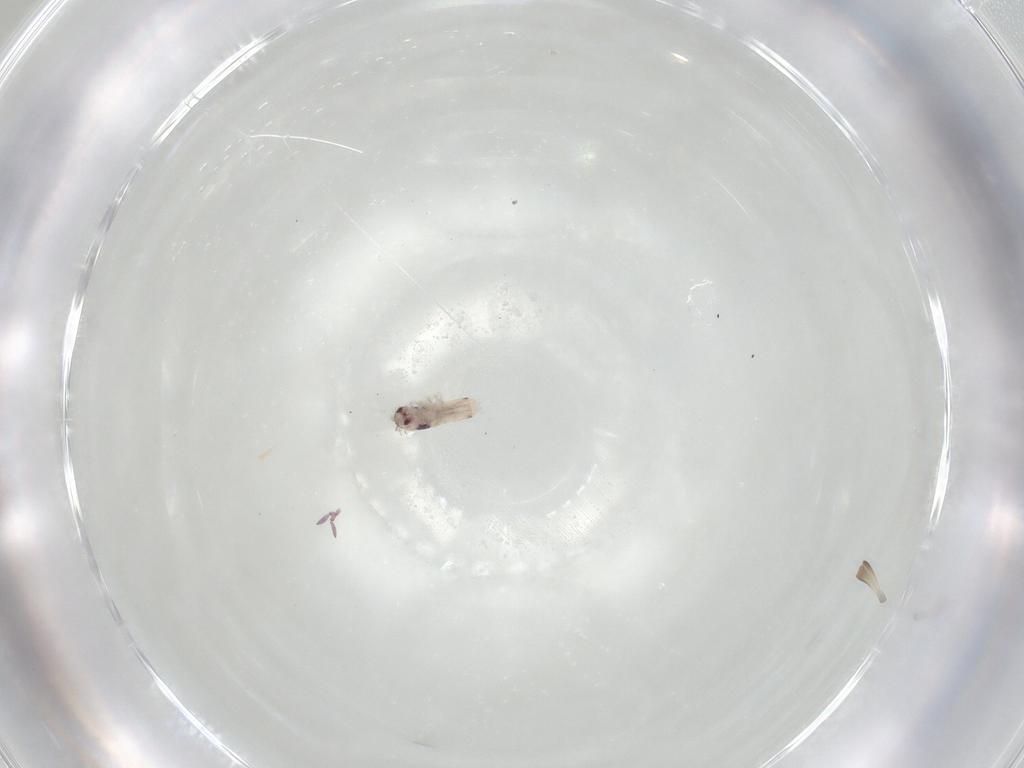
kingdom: Animalia
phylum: Arthropoda
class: Collembola
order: Entomobryomorpha
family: Entomobryidae
